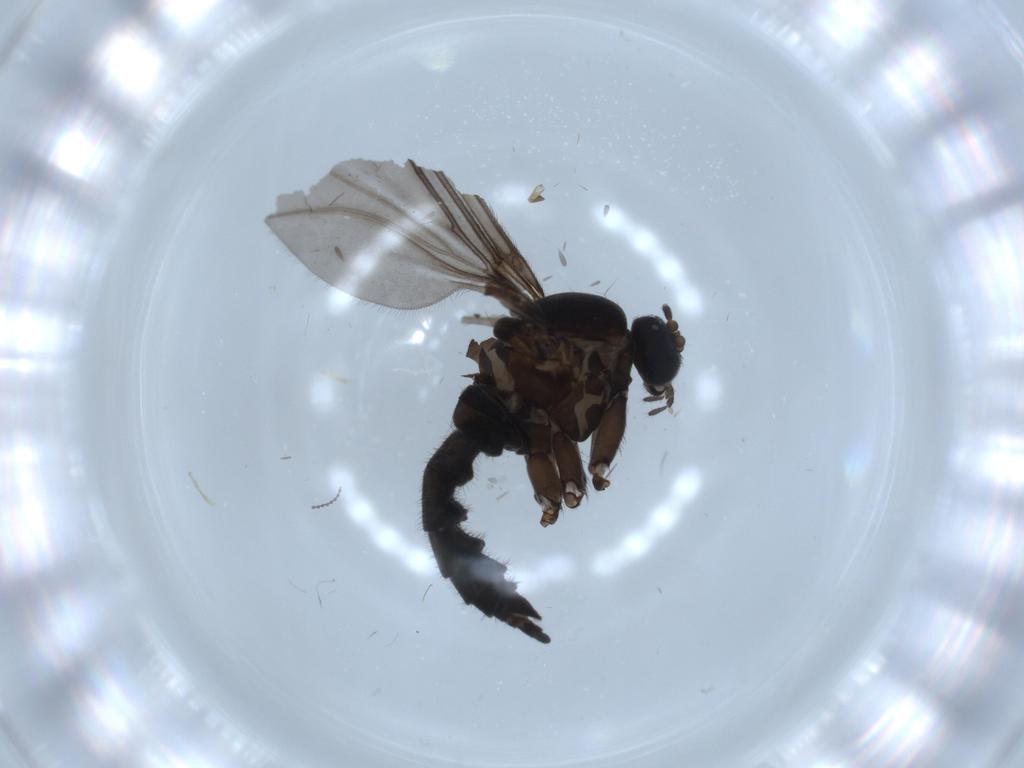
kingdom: Animalia
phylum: Arthropoda
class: Insecta
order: Diptera
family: Sciaridae
